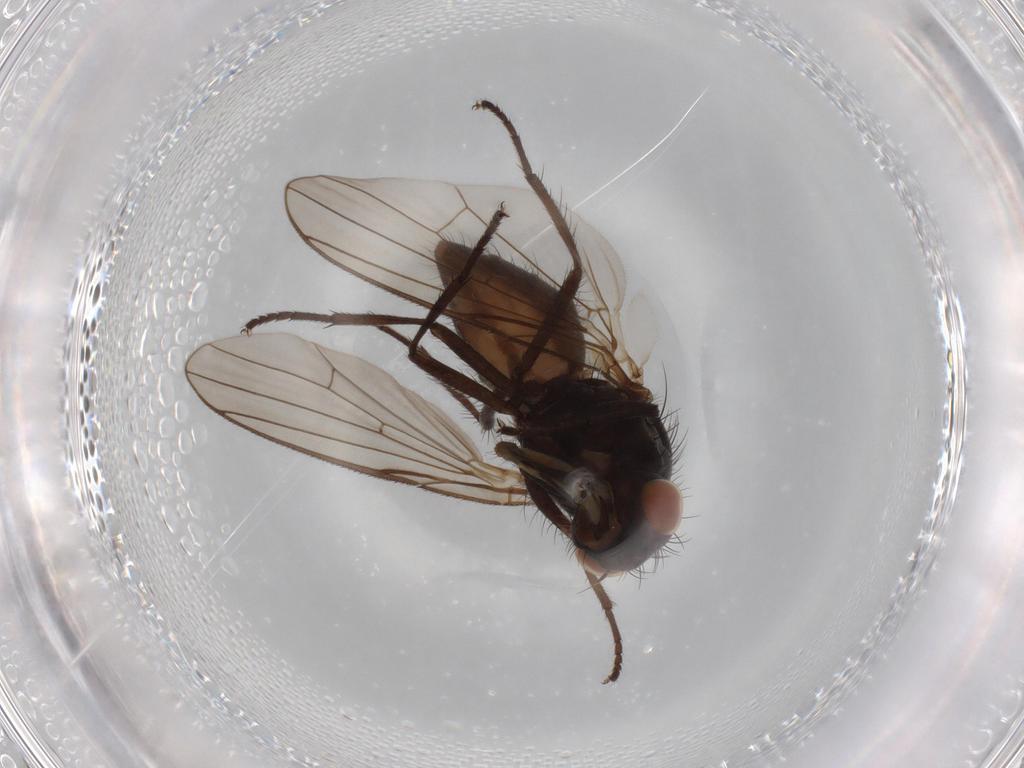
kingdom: Animalia
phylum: Arthropoda
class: Insecta
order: Diptera
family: Anthomyiidae
